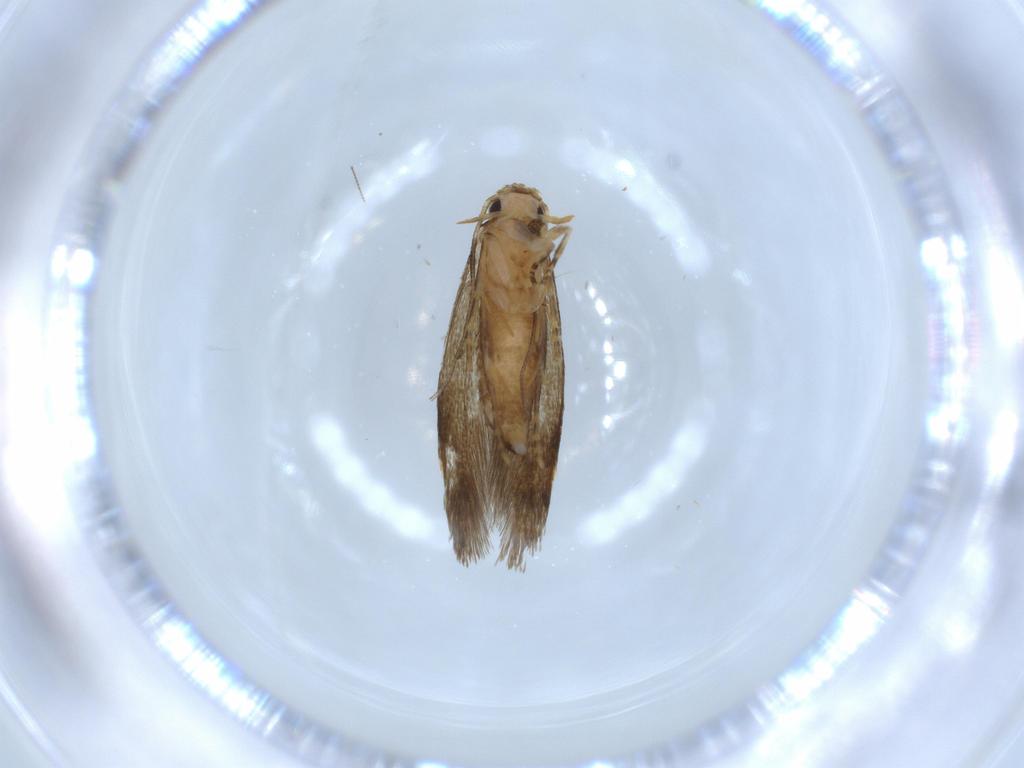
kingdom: Animalia
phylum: Arthropoda
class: Insecta
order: Lepidoptera
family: Tineidae
